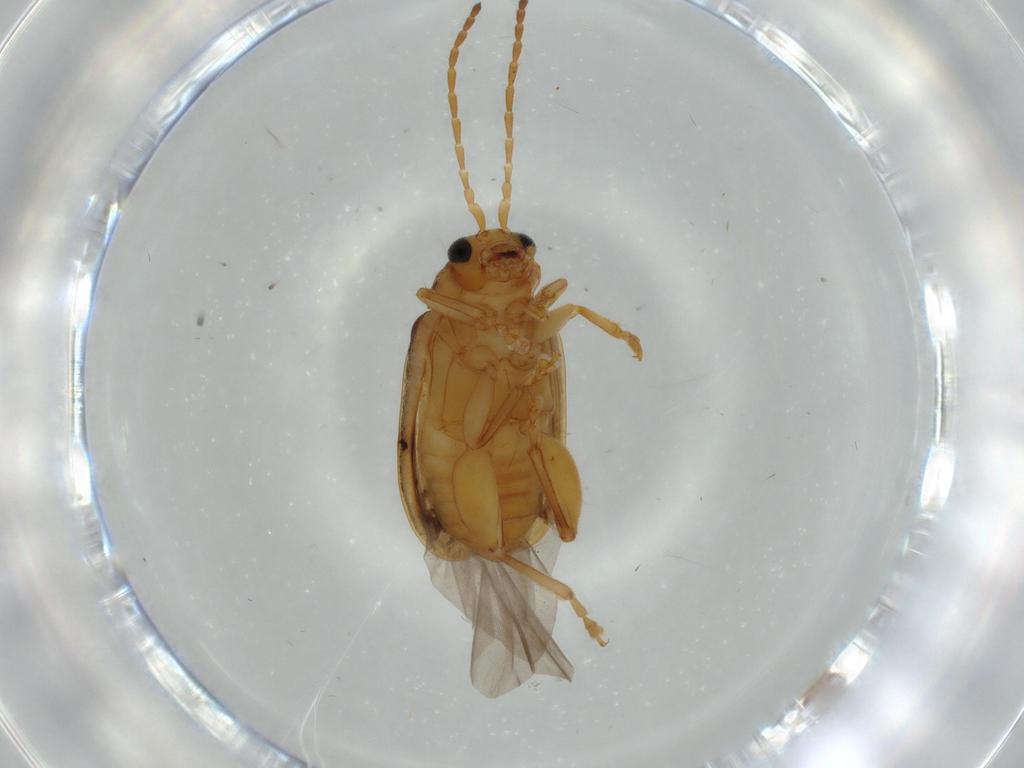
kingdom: Animalia
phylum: Arthropoda
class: Insecta
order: Coleoptera
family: Chrysomelidae
